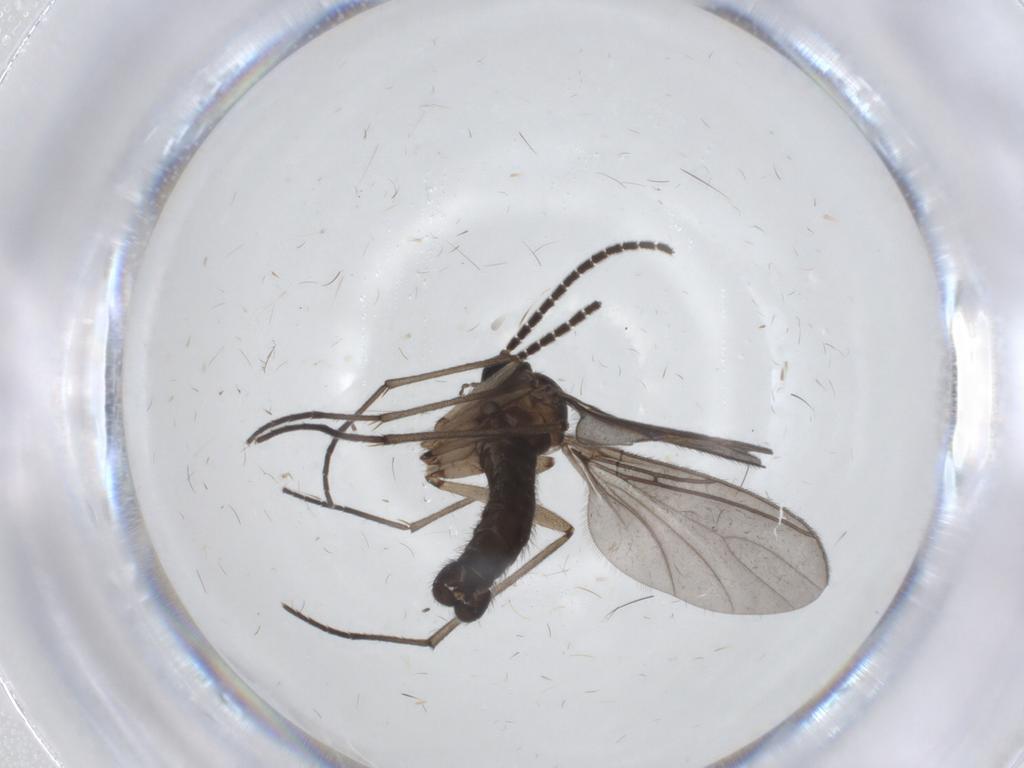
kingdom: Animalia
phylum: Arthropoda
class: Insecta
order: Diptera
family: Sciaridae
